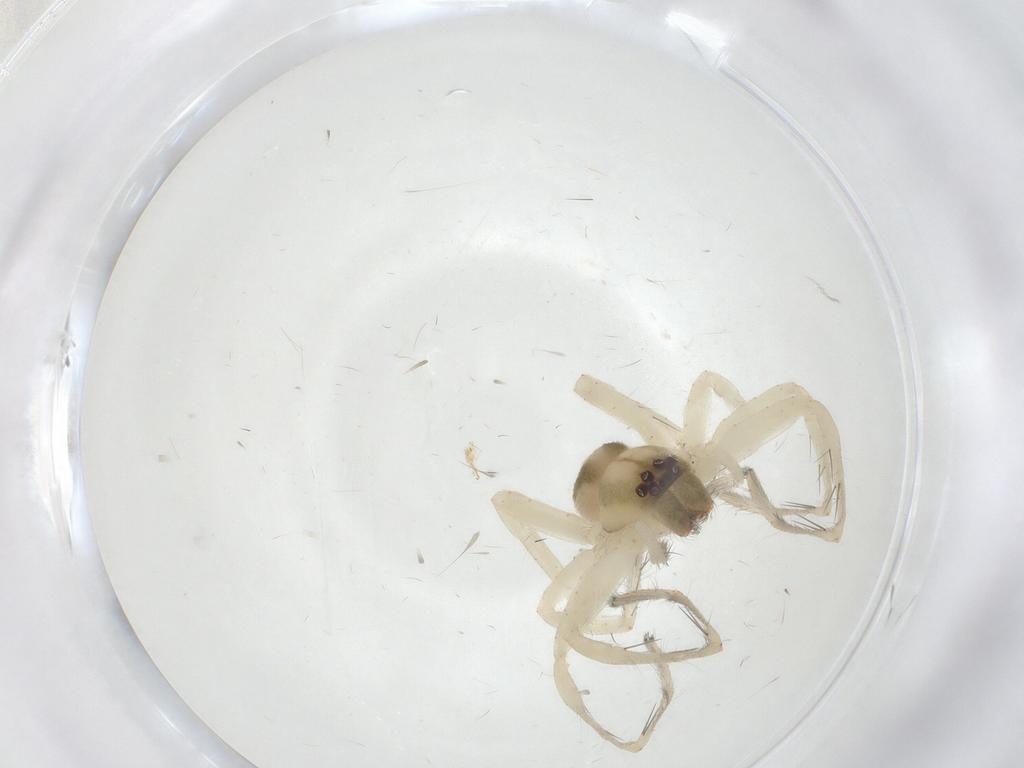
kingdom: Animalia
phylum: Arthropoda
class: Arachnida
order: Araneae
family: Anyphaenidae
